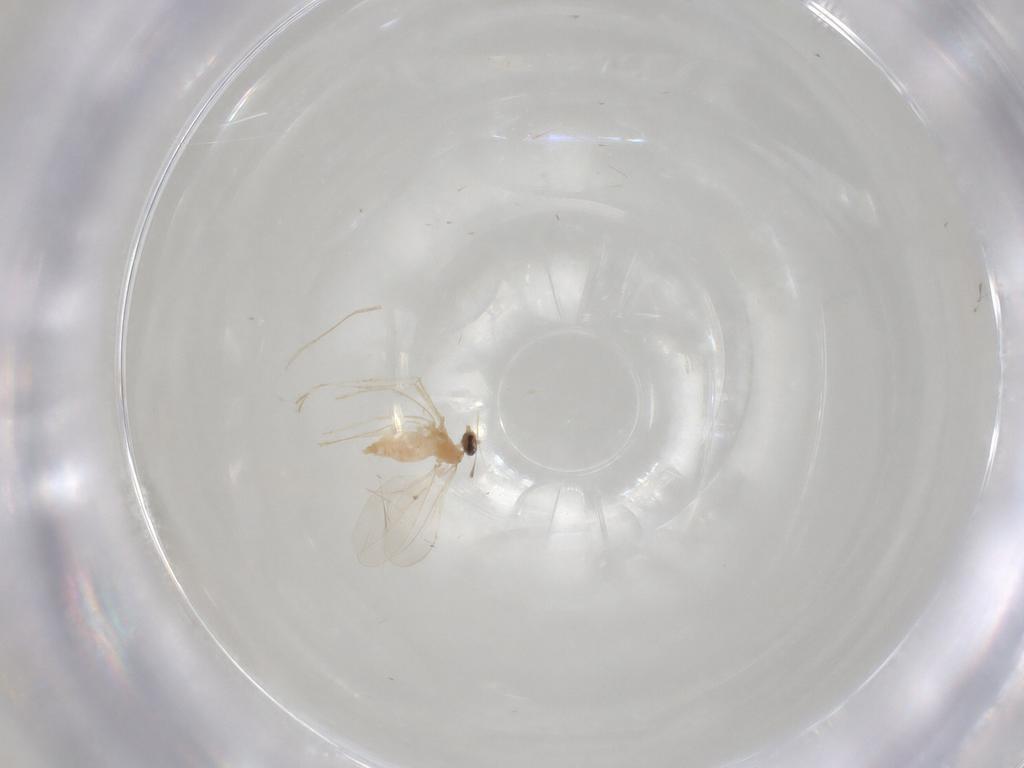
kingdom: Animalia
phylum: Arthropoda
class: Insecta
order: Diptera
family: Cecidomyiidae
